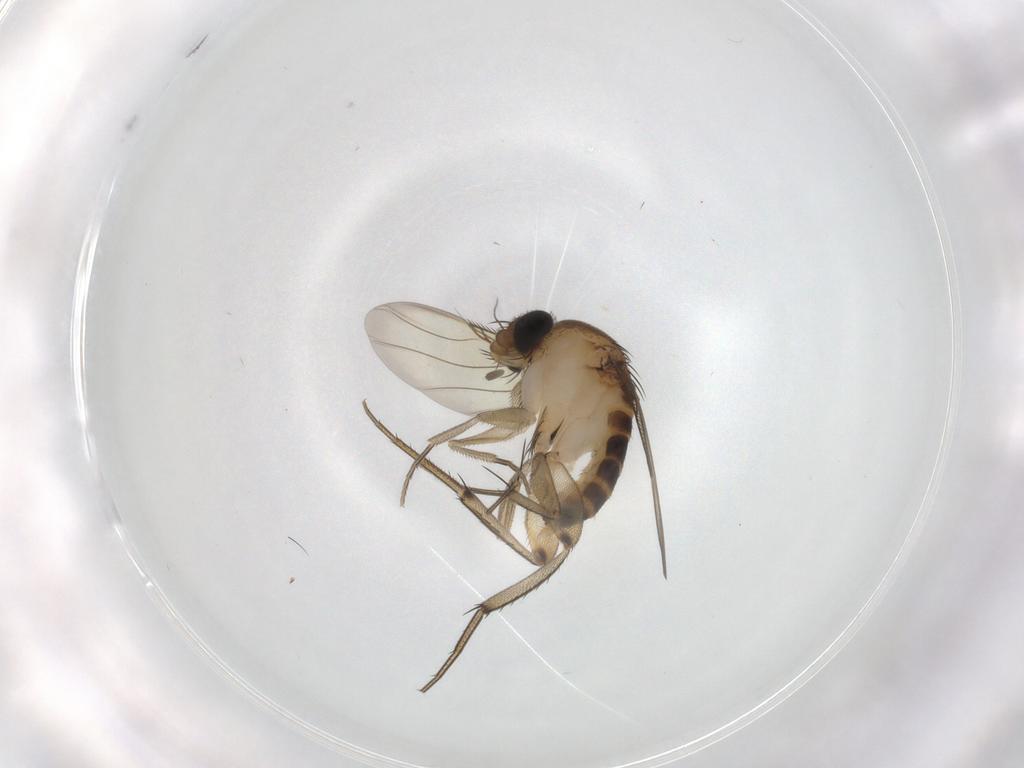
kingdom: Animalia
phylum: Arthropoda
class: Insecta
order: Diptera
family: Phoridae
